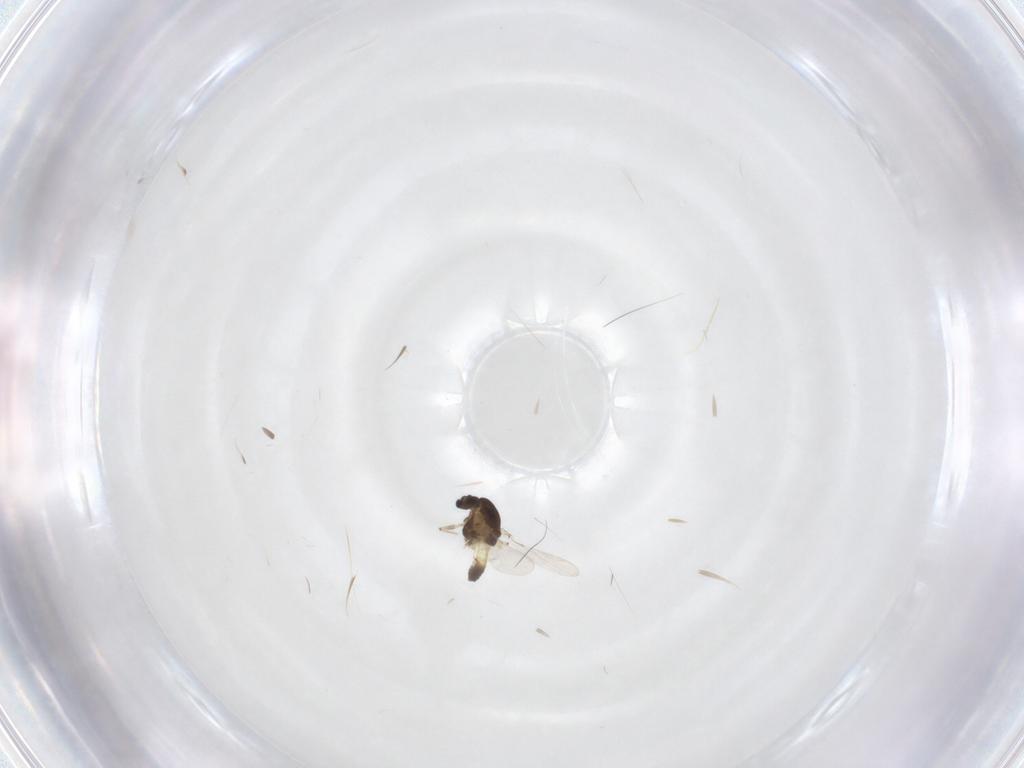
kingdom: Animalia
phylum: Arthropoda
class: Insecta
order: Diptera
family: Chironomidae
